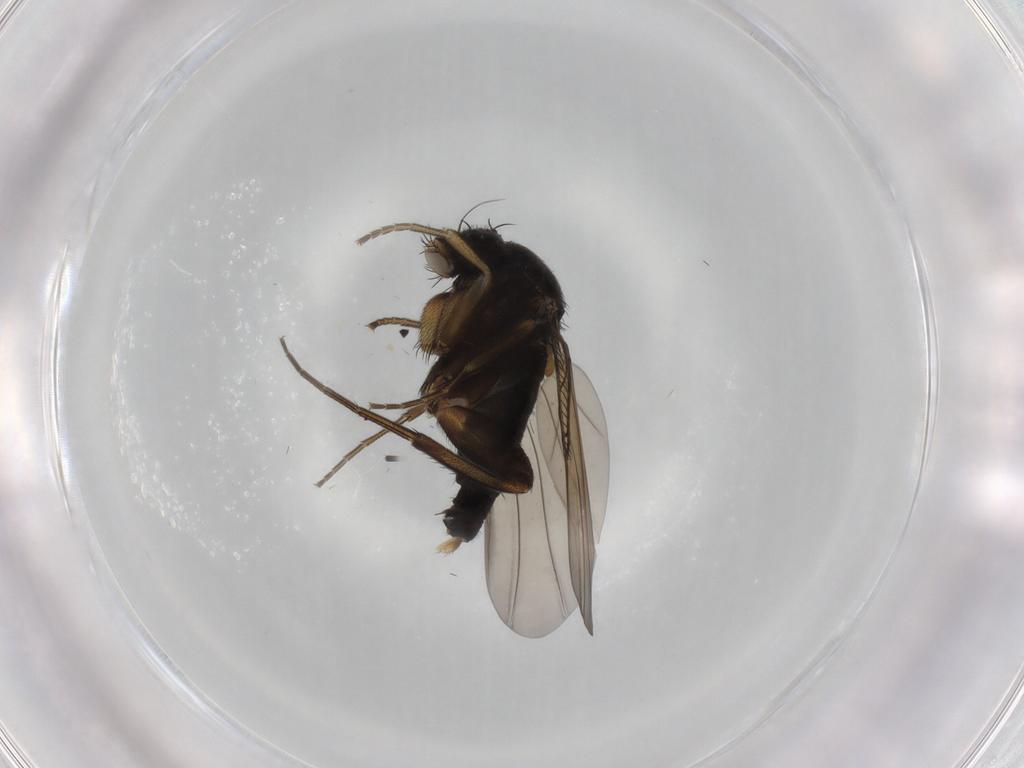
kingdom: Animalia
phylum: Arthropoda
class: Insecta
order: Diptera
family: Phoridae
